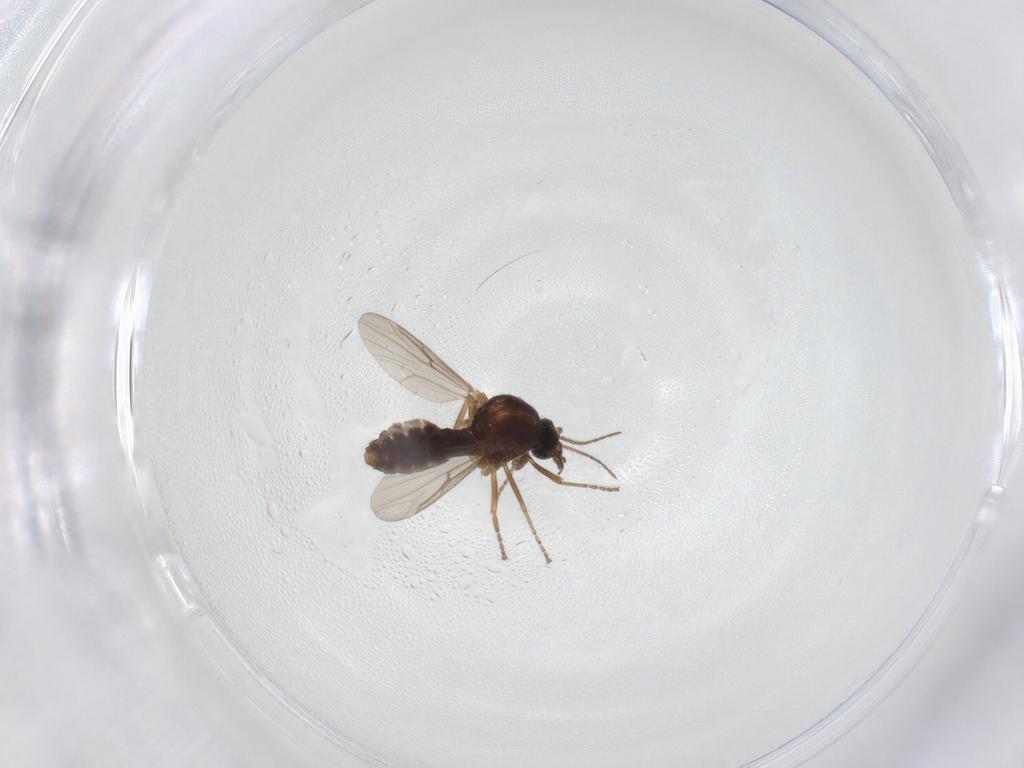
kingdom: Animalia
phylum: Arthropoda
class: Insecta
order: Diptera
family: Ceratopogonidae
